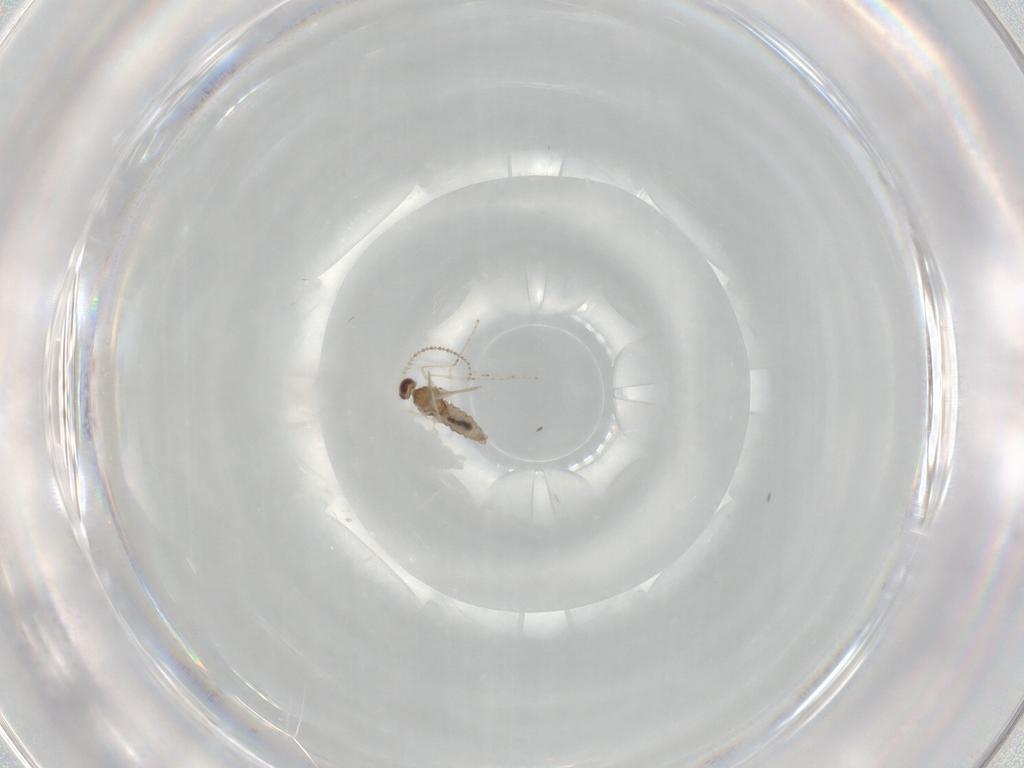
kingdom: Animalia
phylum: Arthropoda
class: Insecta
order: Diptera
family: Cecidomyiidae
